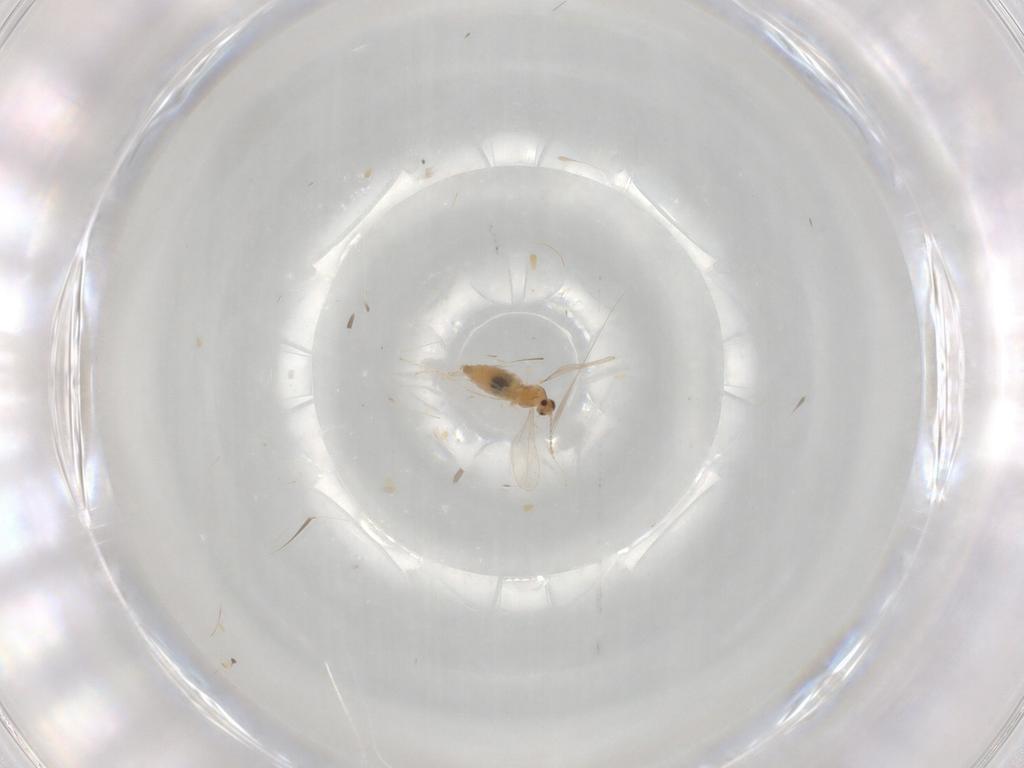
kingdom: Animalia
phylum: Arthropoda
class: Insecta
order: Diptera
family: Cecidomyiidae
